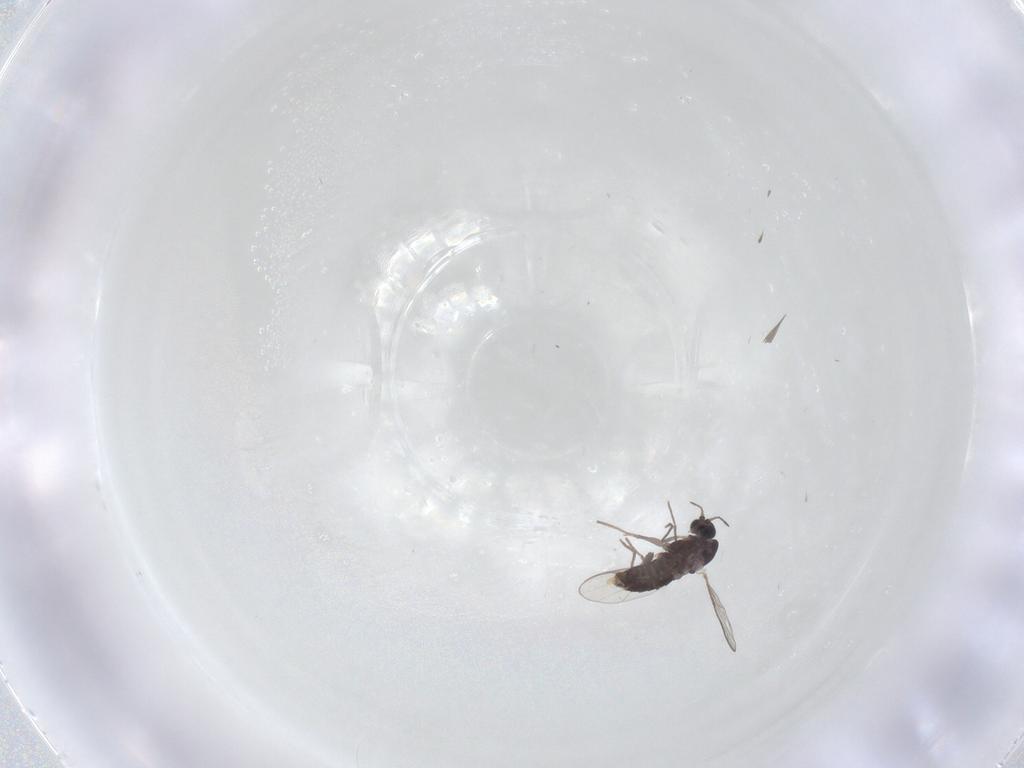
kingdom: Animalia
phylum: Arthropoda
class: Insecta
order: Diptera
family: Chironomidae
